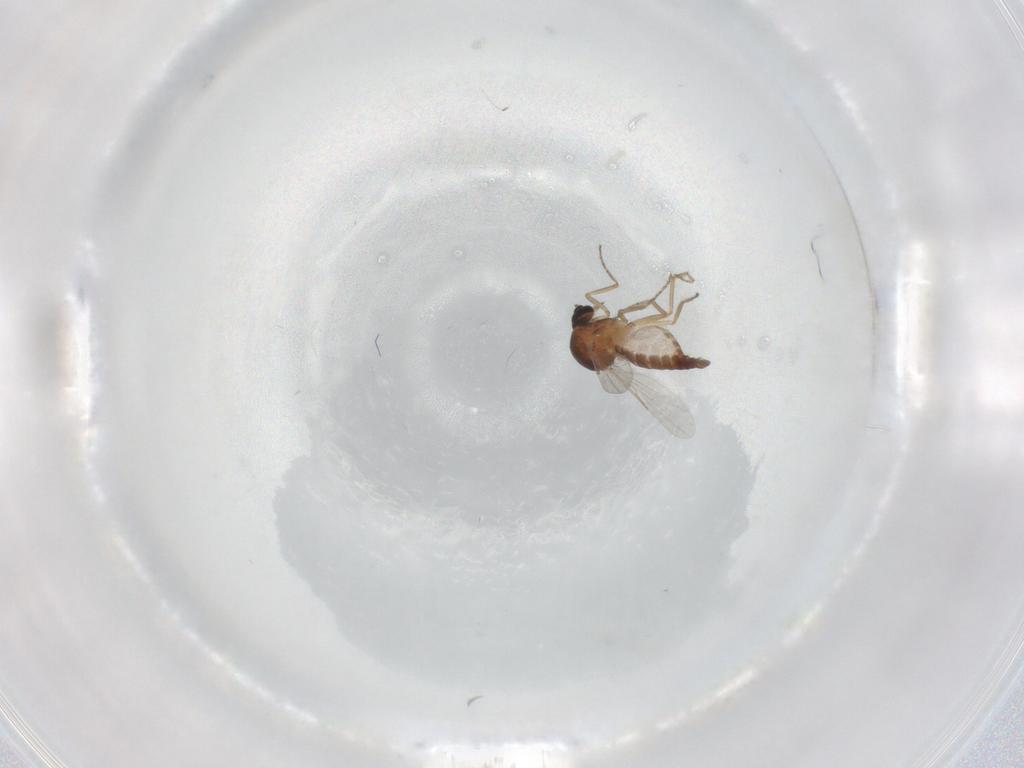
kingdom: Animalia
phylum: Arthropoda
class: Insecta
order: Diptera
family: Ceratopogonidae
